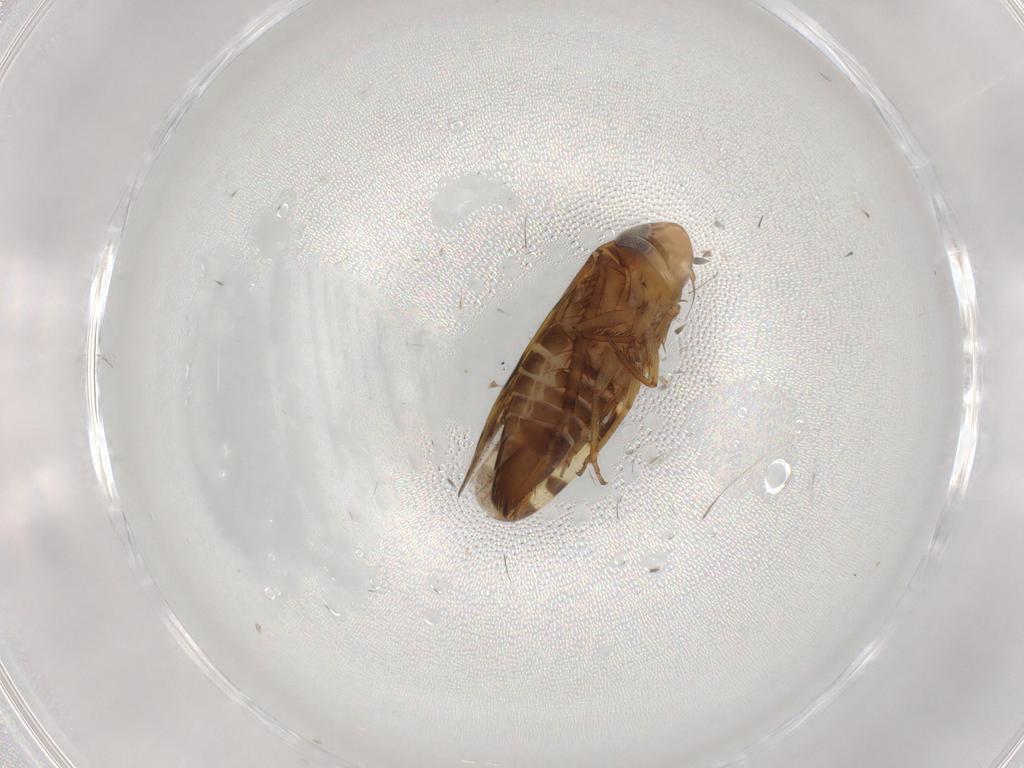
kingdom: Animalia
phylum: Arthropoda
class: Insecta
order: Hemiptera
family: Cicadellidae
